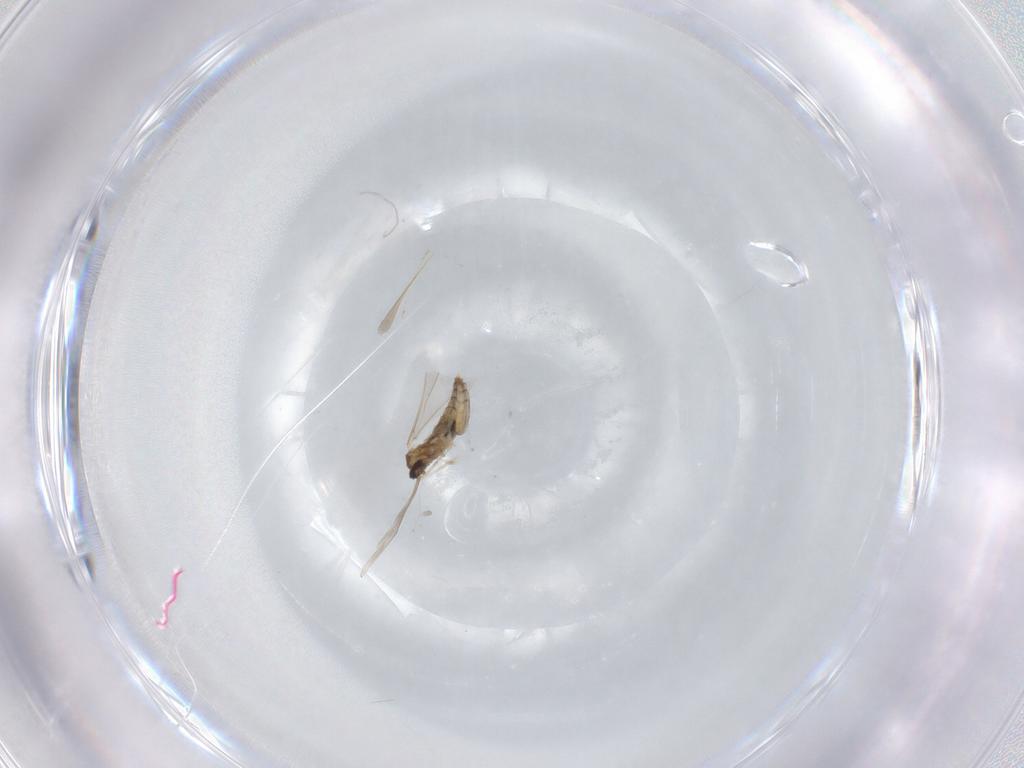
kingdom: Animalia
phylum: Arthropoda
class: Insecta
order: Diptera
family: Cecidomyiidae
